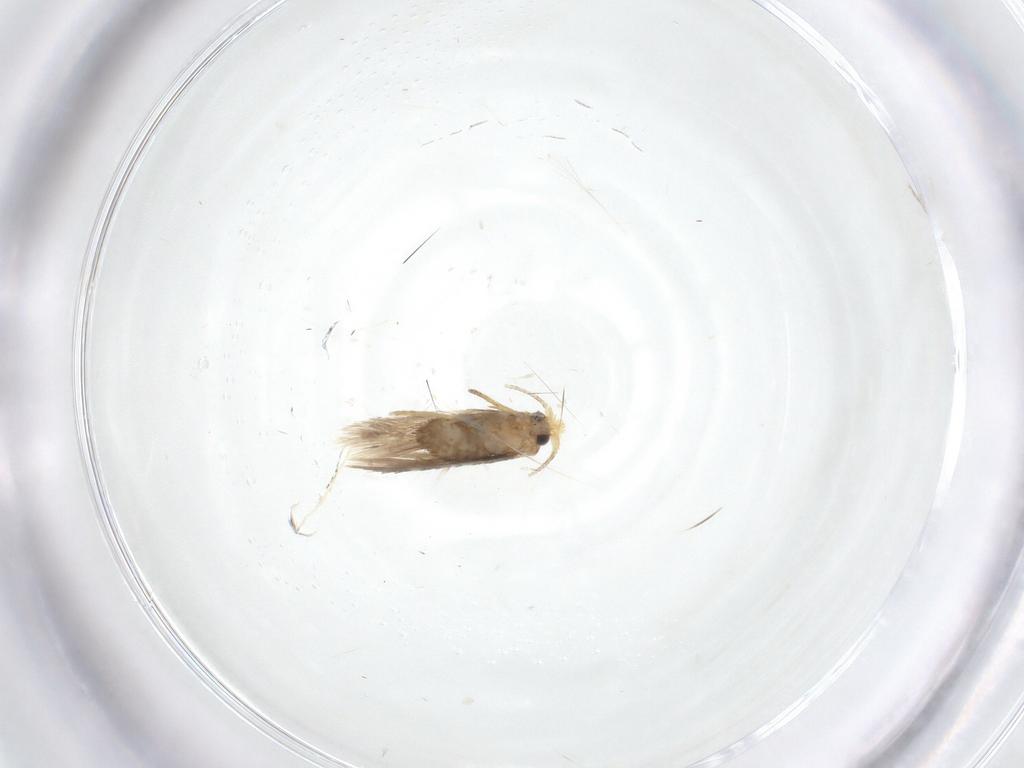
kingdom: Animalia
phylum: Arthropoda
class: Insecta
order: Lepidoptera
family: Nepticulidae
